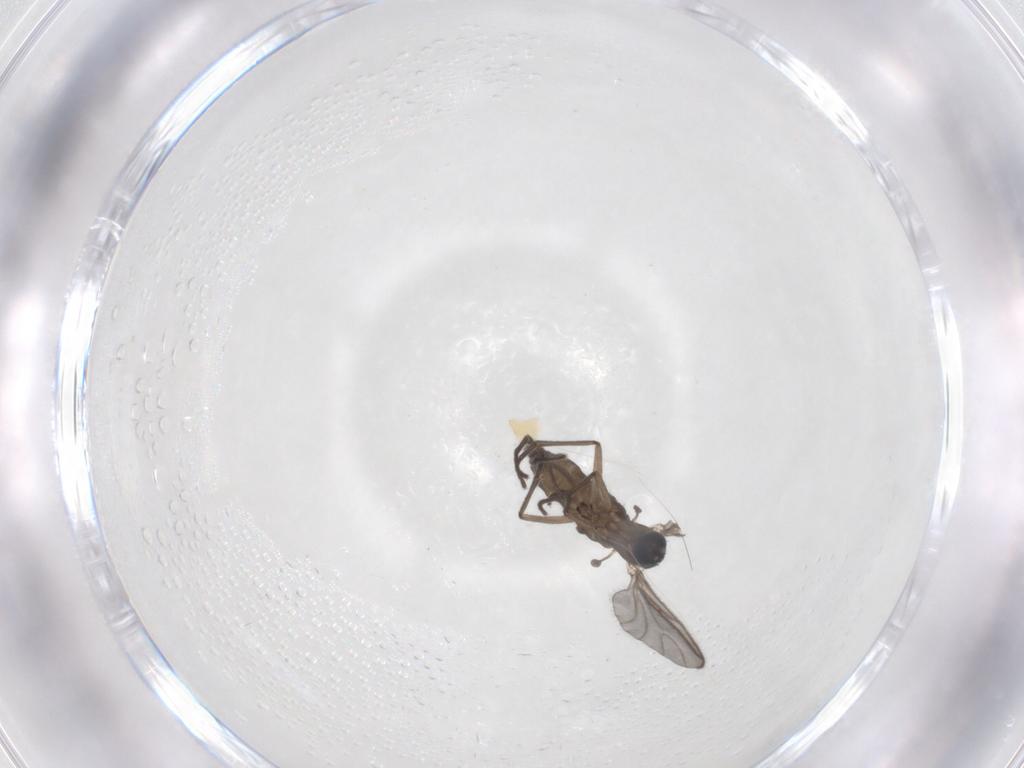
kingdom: Animalia
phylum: Arthropoda
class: Insecta
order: Diptera
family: Sciaridae
